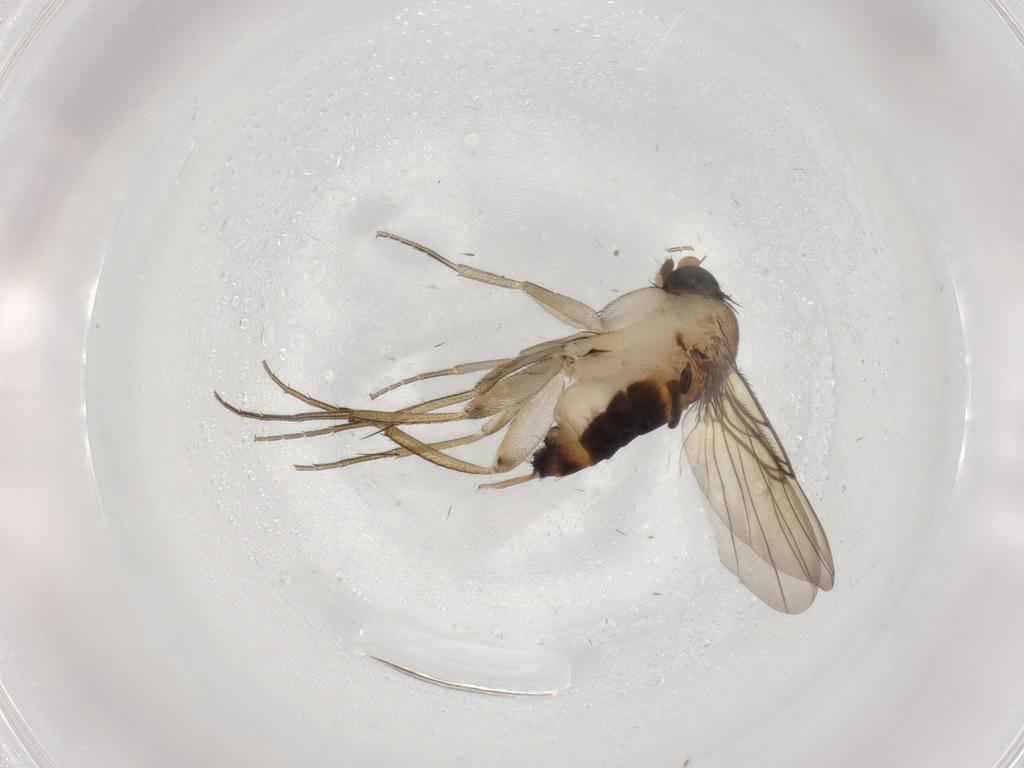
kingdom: Animalia
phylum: Arthropoda
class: Insecta
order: Diptera
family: Phoridae
